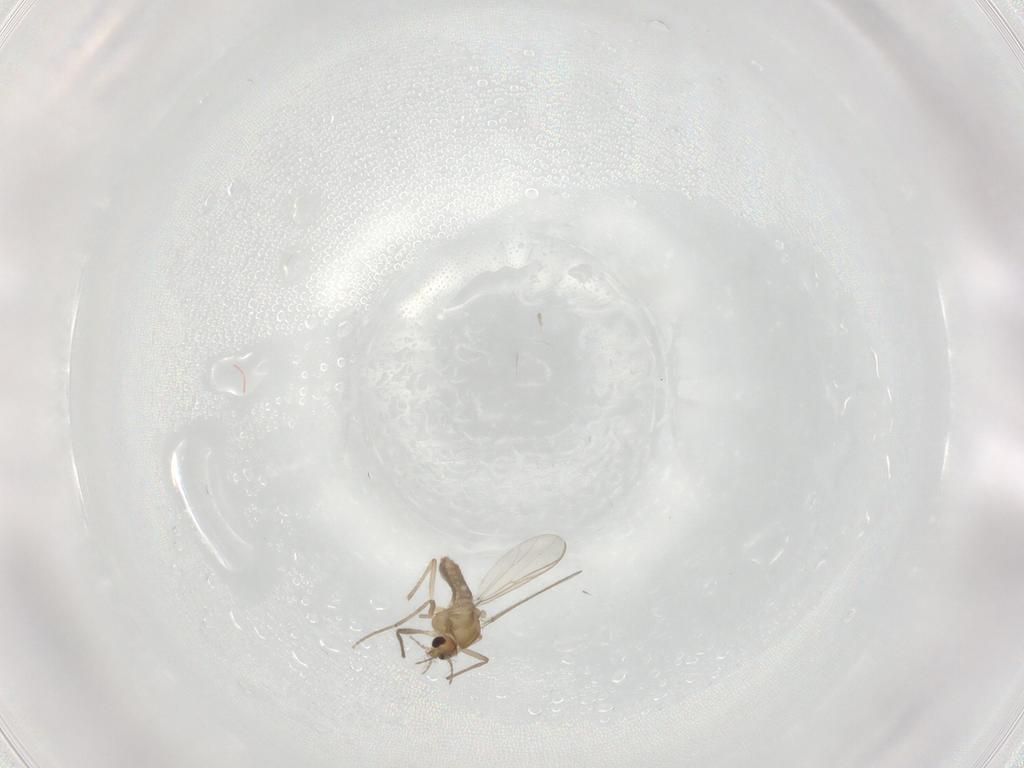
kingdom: Animalia
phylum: Arthropoda
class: Insecta
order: Diptera
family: Chironomidae
